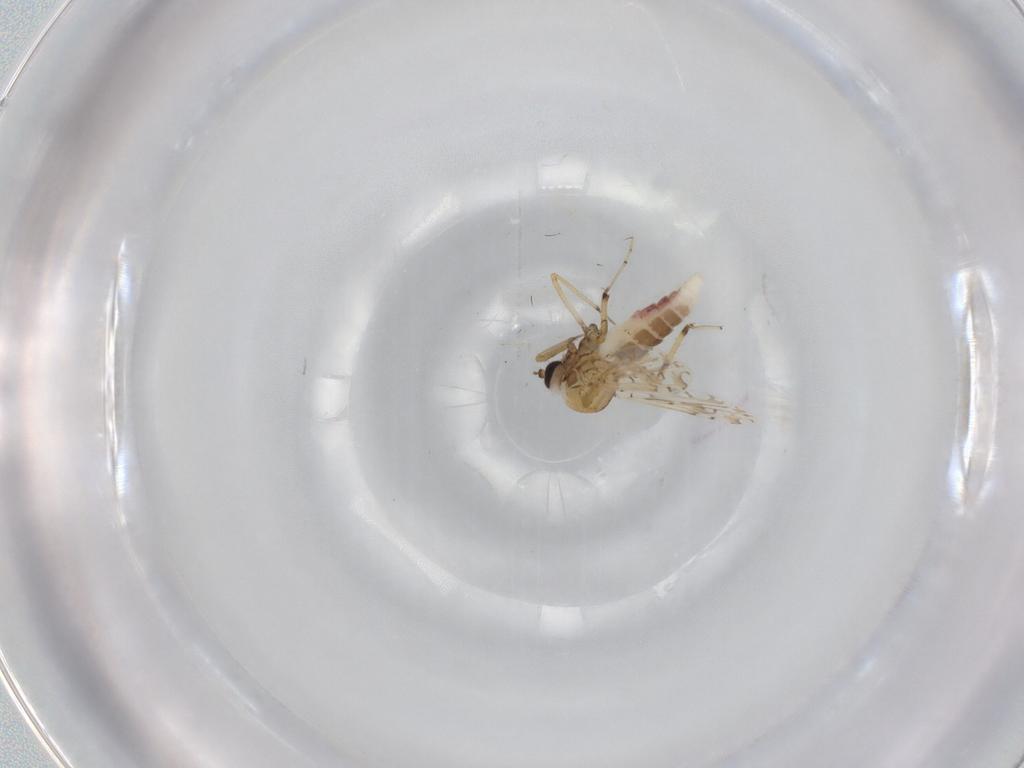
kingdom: Animalia
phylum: Arthropoda
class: Insecta
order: Diptera
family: Ceratopogonidae
